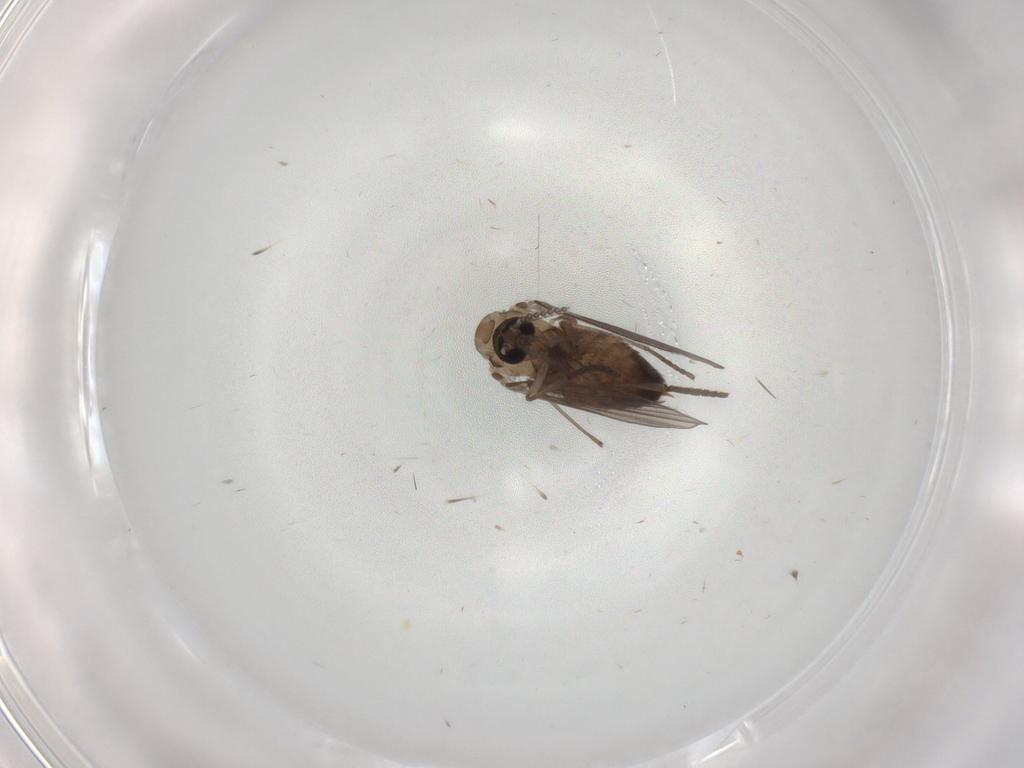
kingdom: Animalia
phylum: Arthropoda
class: Insecta
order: Diptera
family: Psychodidae
